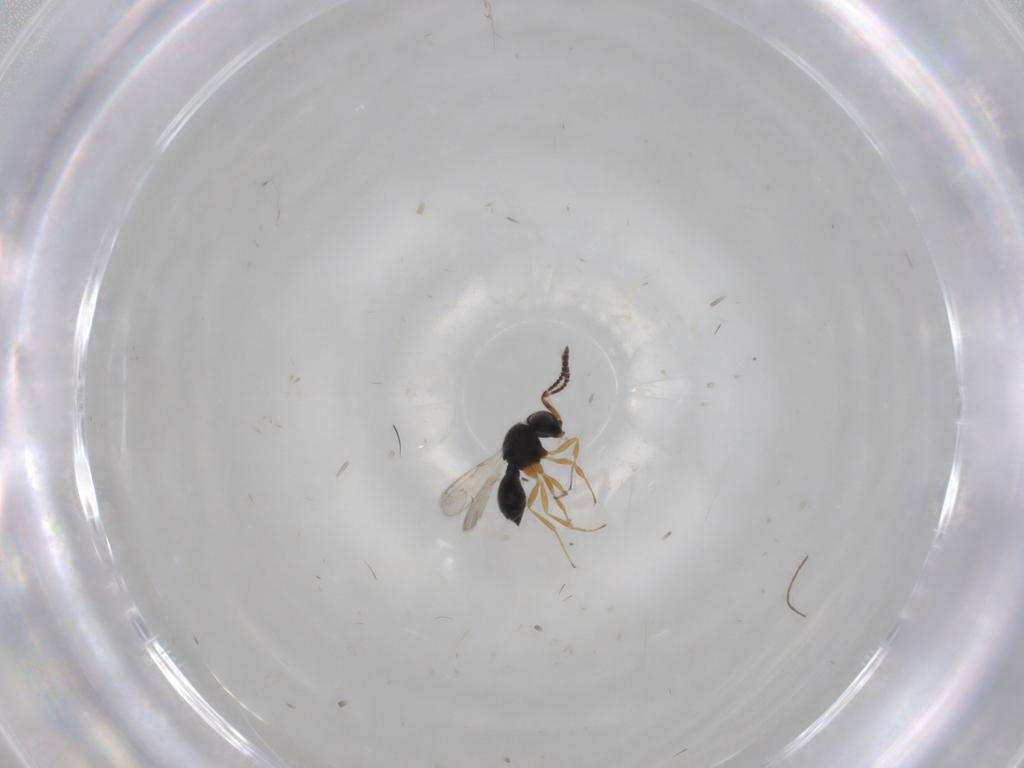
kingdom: Animalia
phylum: Arthropoda
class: Insecta
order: Hymenoptera
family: Scelionidae
